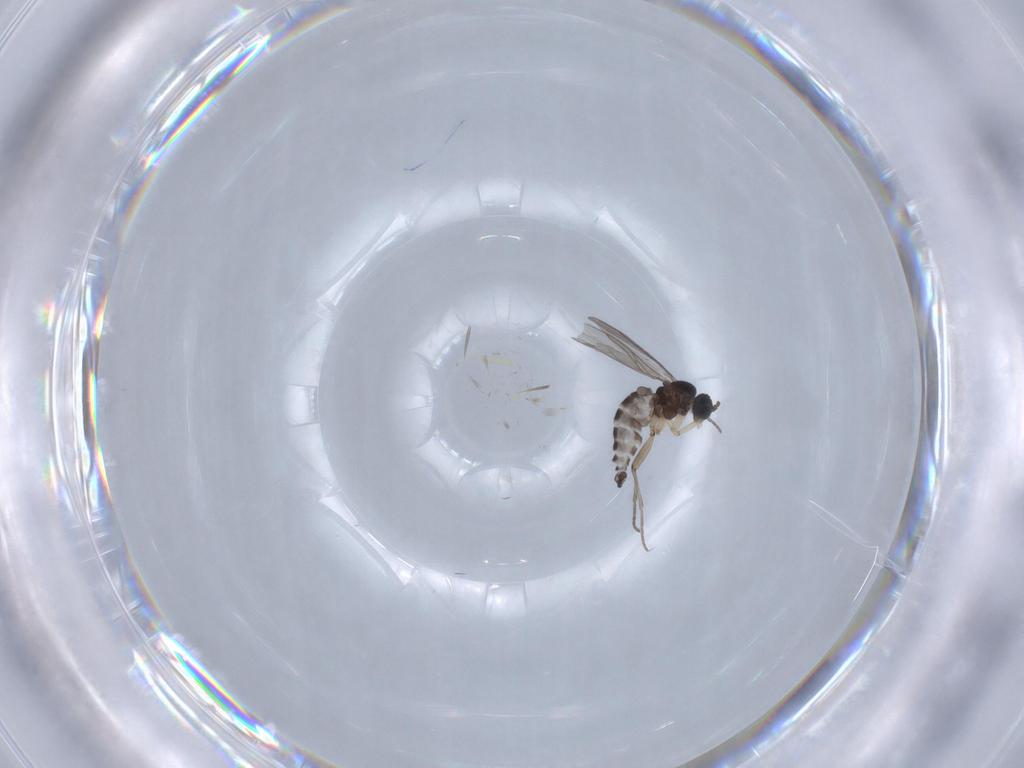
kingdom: Animalia
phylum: Arthropoda
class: Insecta
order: Diptera
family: Sciaridae
